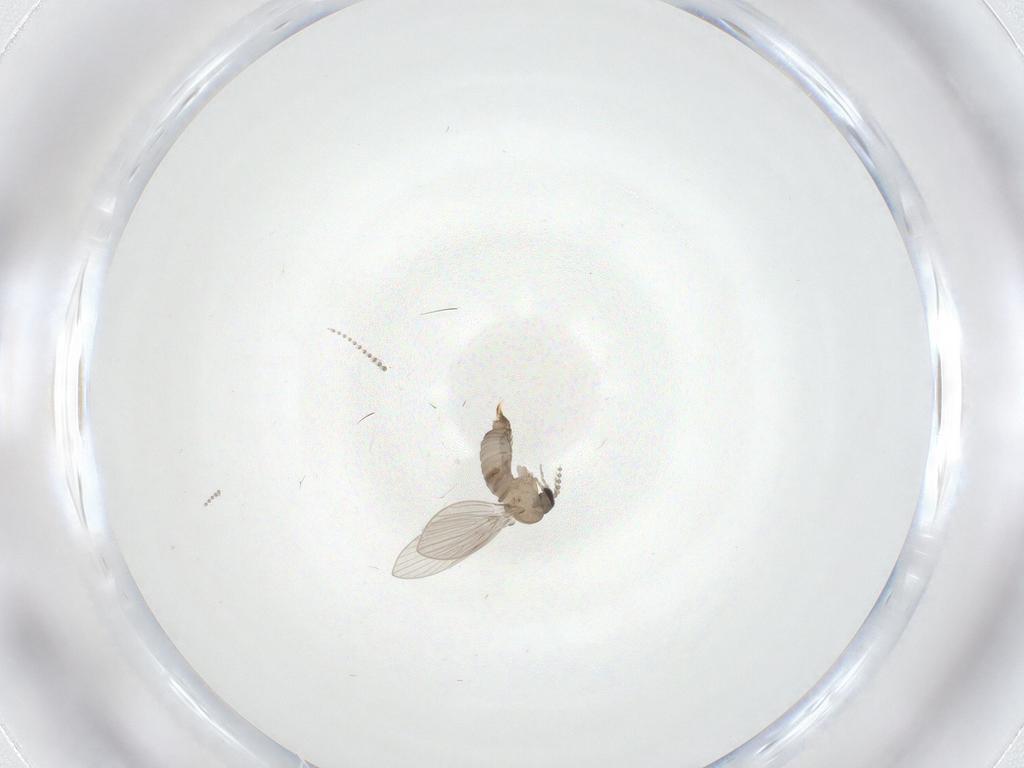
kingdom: Animalia
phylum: Arthropoda
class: Insecta
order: Diptera
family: Psychodidae
